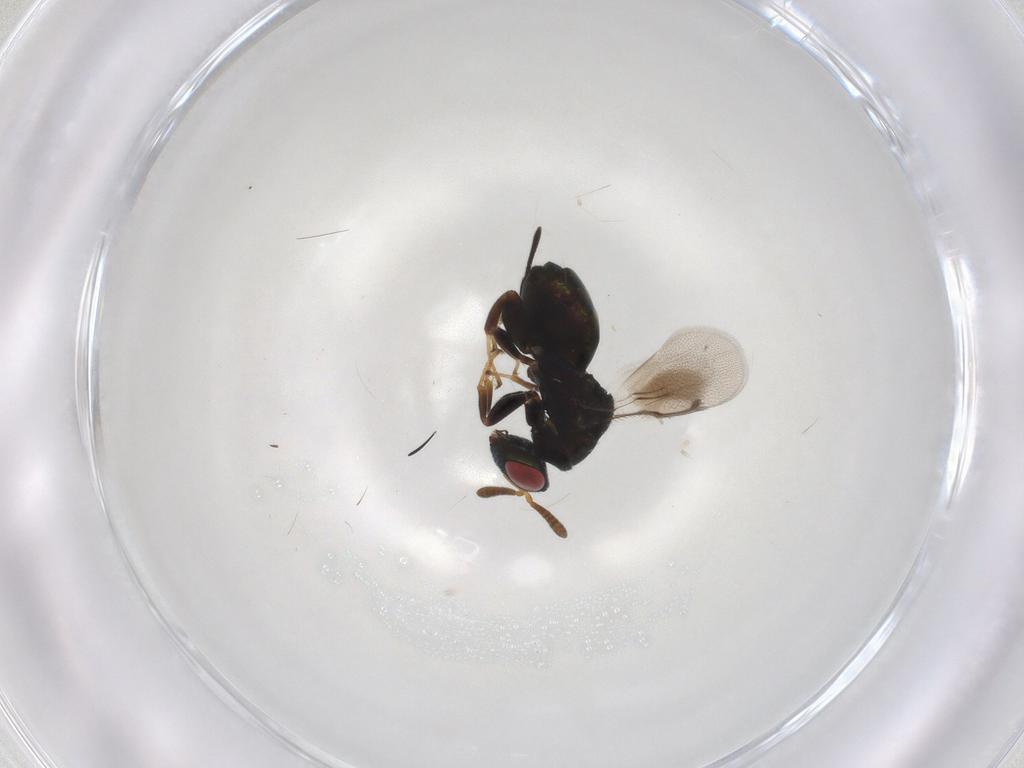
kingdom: Animalia
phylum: Arthropoda
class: Insecta
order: Hymenoptera
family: Torymidae
